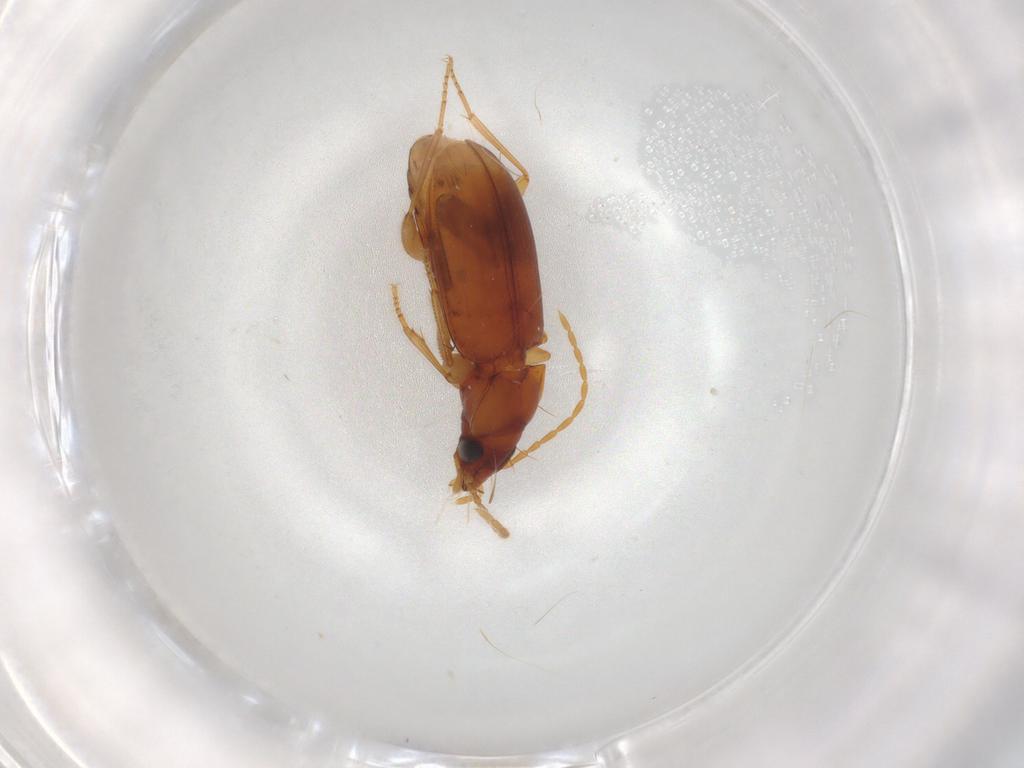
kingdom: Animalia
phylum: Arthropoda
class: Insecta
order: Coleoptera
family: Carabidae
